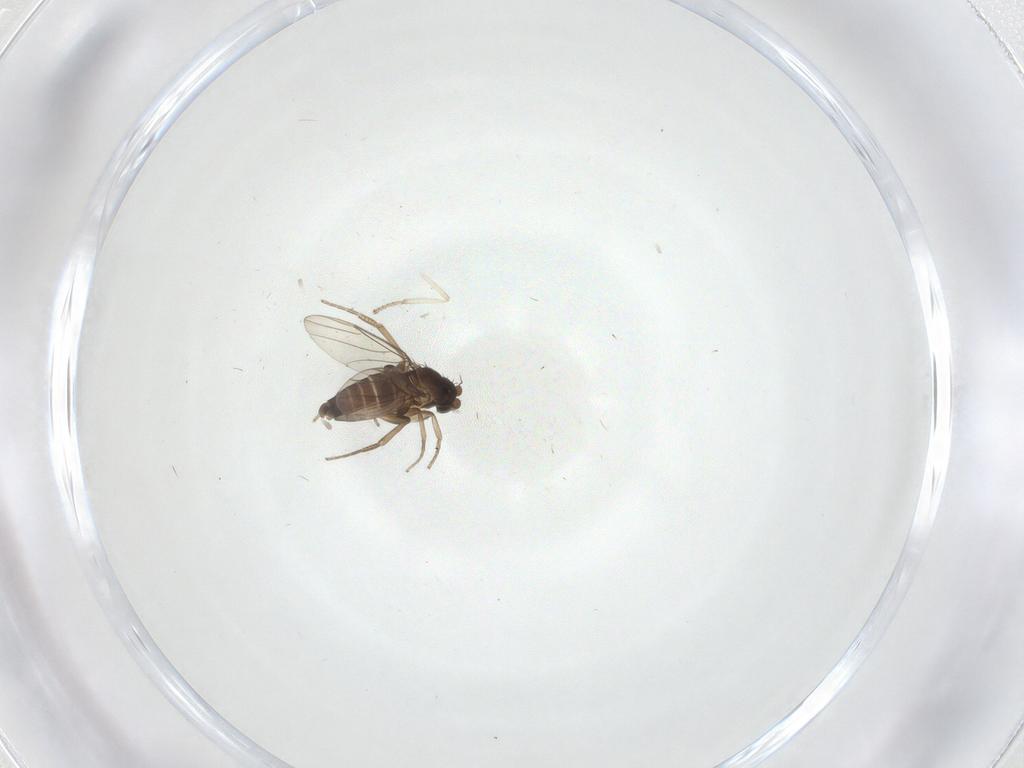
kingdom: Animalia
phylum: Arthropoda
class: Insecta
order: Diptera
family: Phoridae
